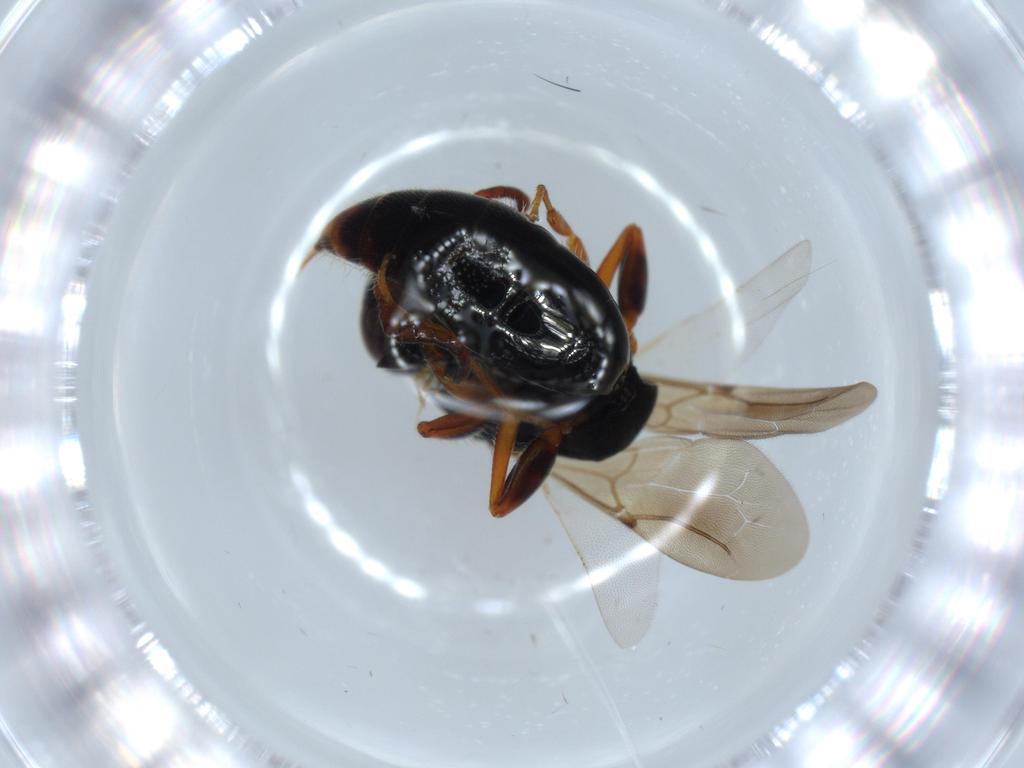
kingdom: Animalia
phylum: Arthropoda
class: Insecta
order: Hymenoptera
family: Bethylidae
